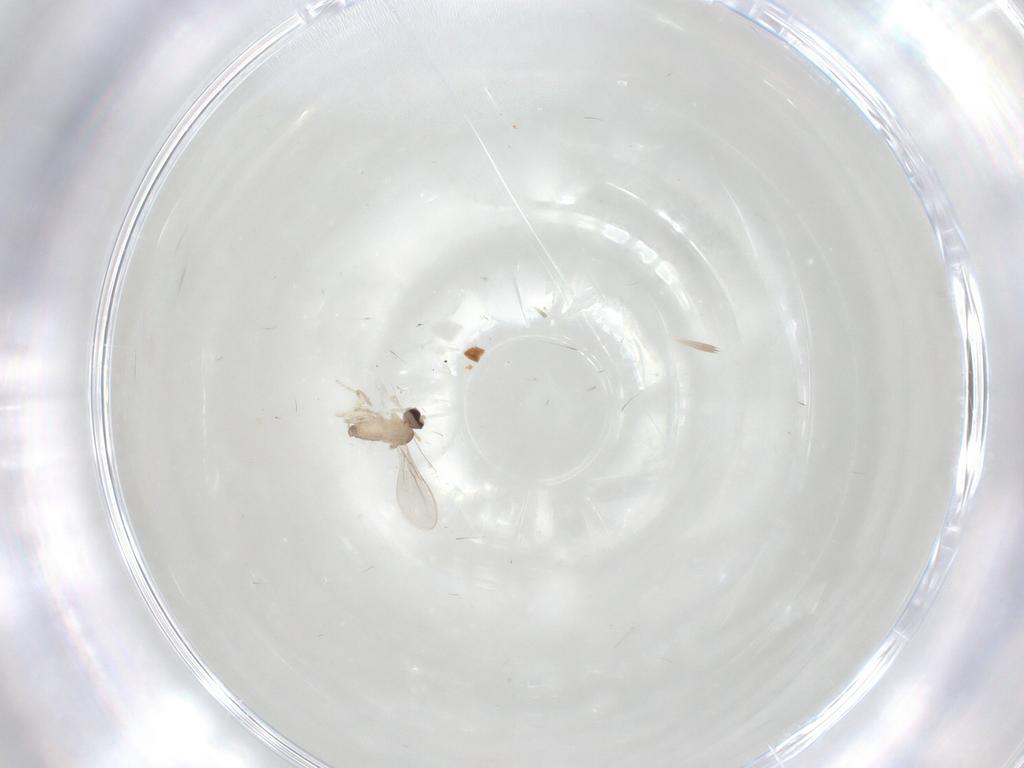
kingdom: Animalia
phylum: Arthropoda
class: Insecta
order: Diptera
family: Cecidomyiidae
